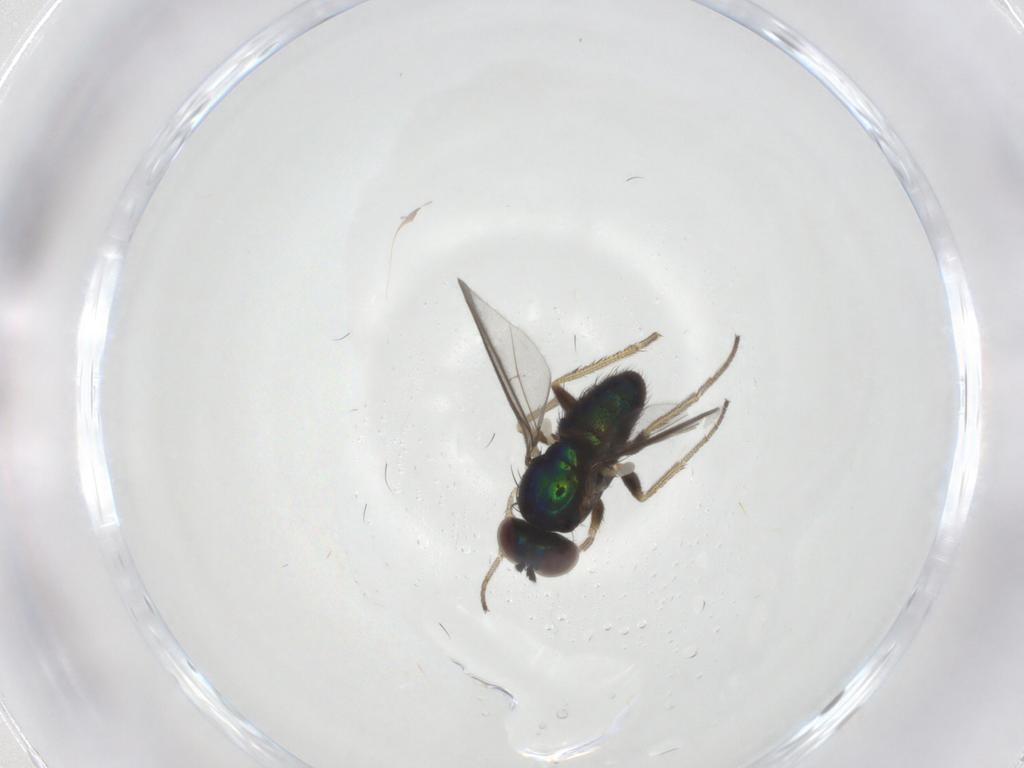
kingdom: Animalia
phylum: Arthropoda
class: Insecta
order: Diptera
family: Dolichopodidae
